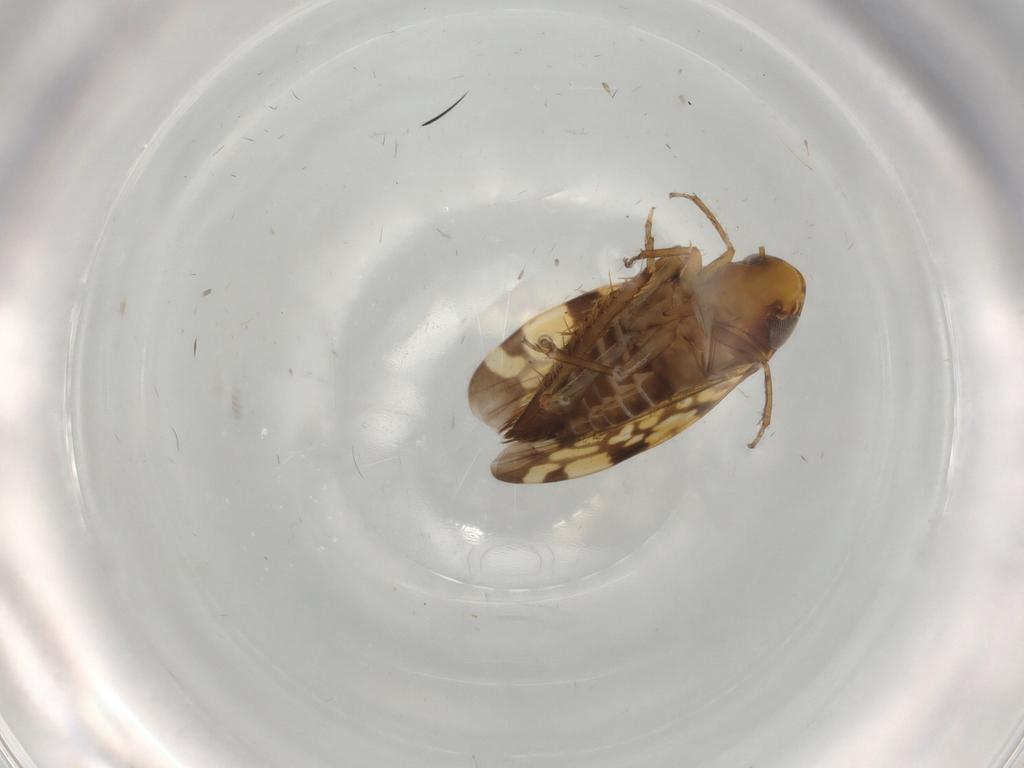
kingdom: Animalia
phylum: Arthropoda
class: Insecta
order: Hemiptera
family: Cicadellidae
